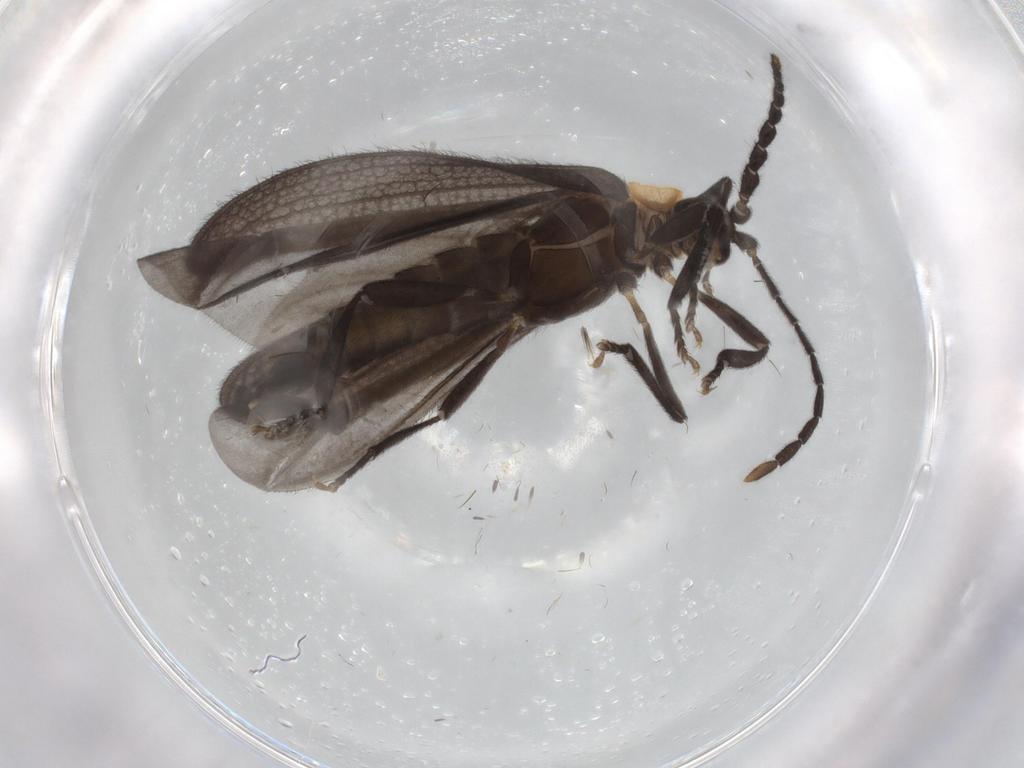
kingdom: Animalia
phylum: Arthropoda
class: Insecta
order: Coleoptera
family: Lycidae
